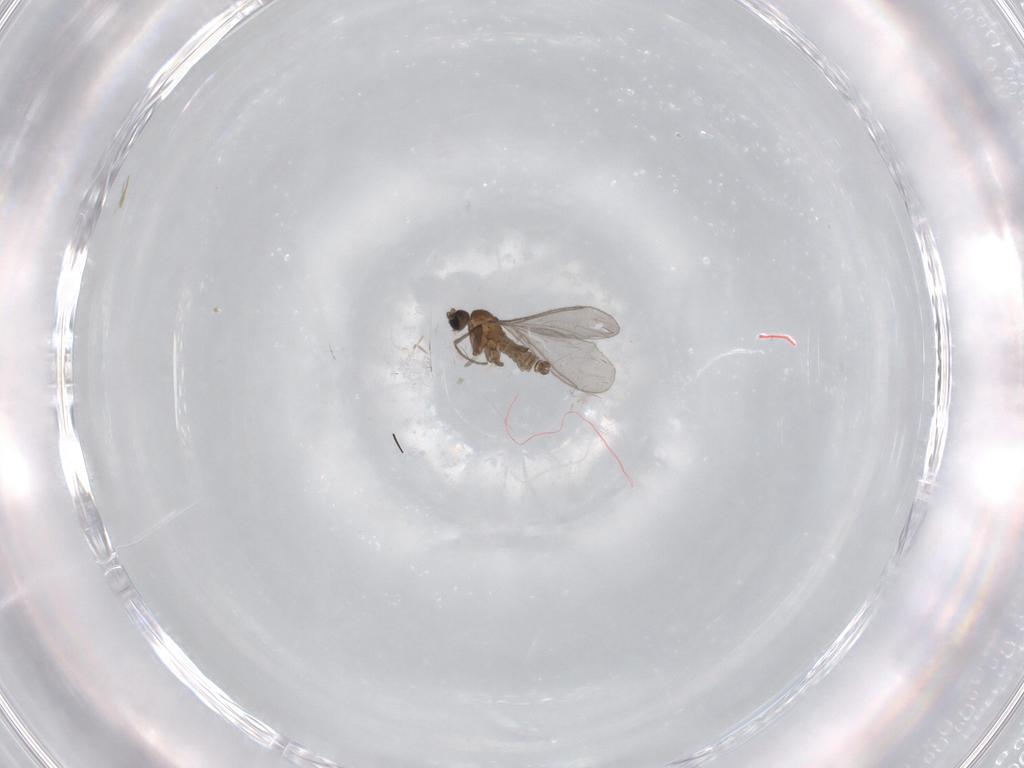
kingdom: Animalia
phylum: Arthropoda
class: Insecta
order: Diptera
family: Sciaridae
